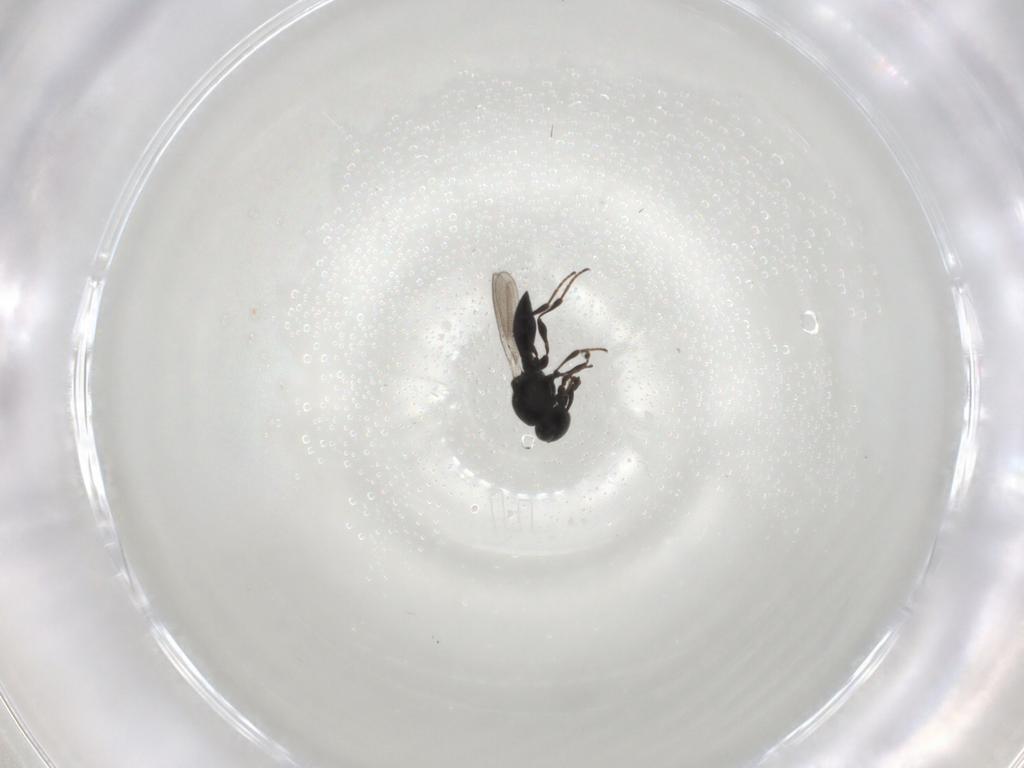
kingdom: Animalia
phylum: Arthropoda
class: Insecta
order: Hymenoptera
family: Platygastridae
